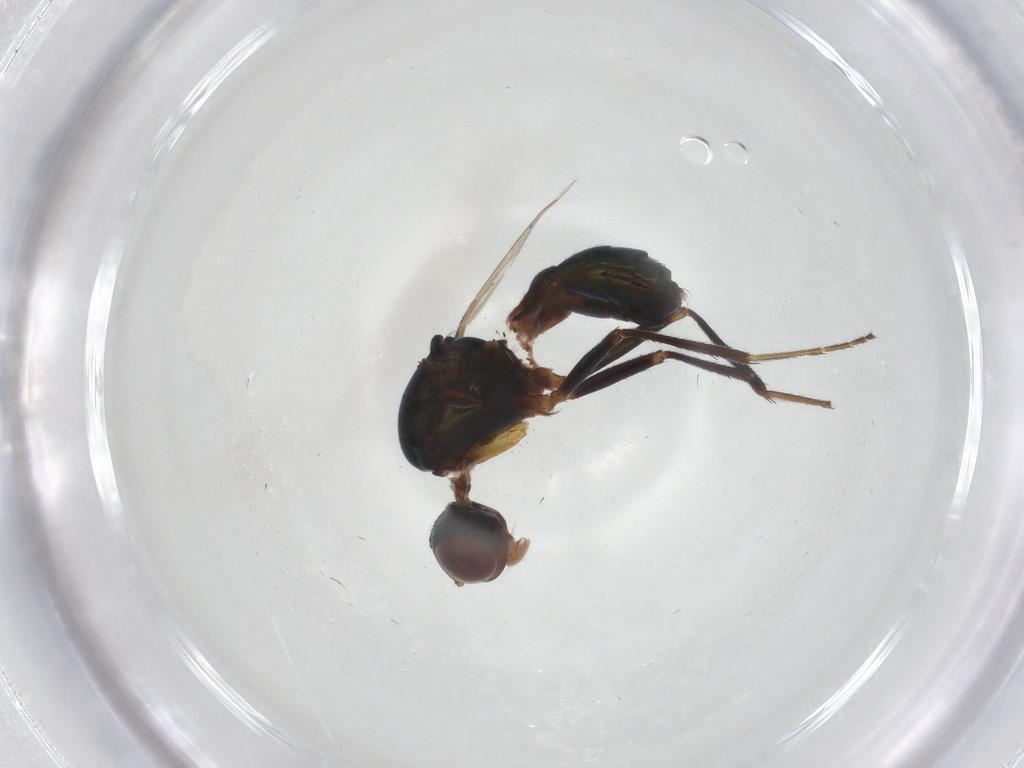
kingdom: Animalia
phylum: Arthropoda
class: Insecta
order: Diptera
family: Sepsidae
